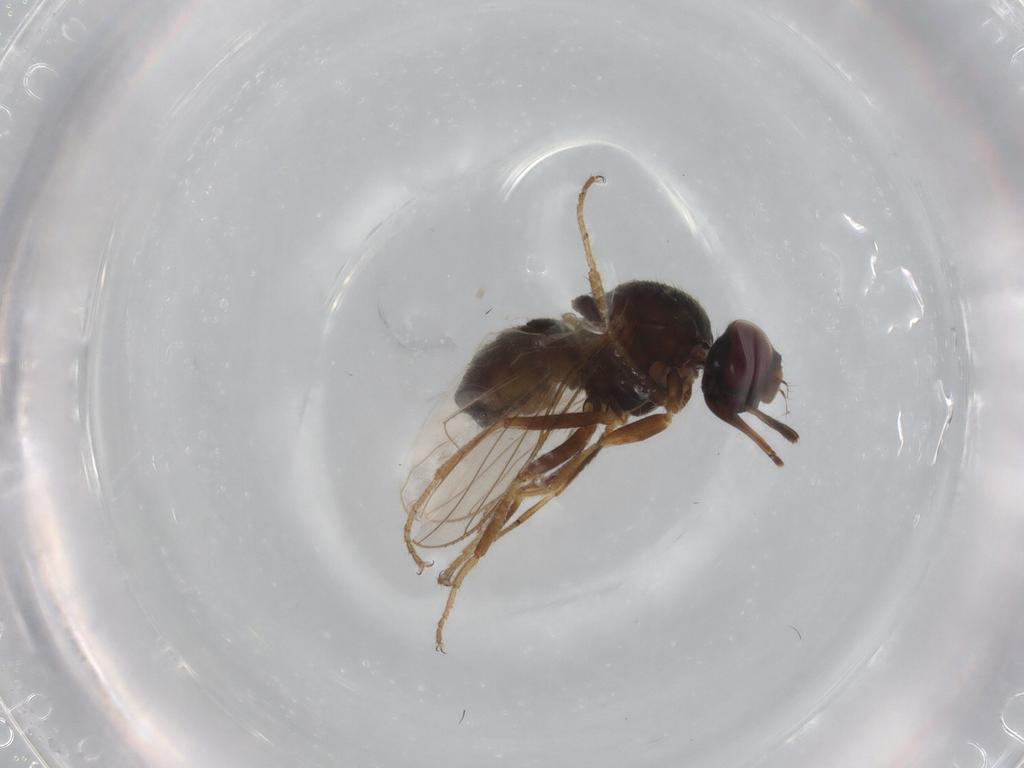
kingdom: Animalia
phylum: Arthropoda
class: Insecta
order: Diptera
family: Muscidae
